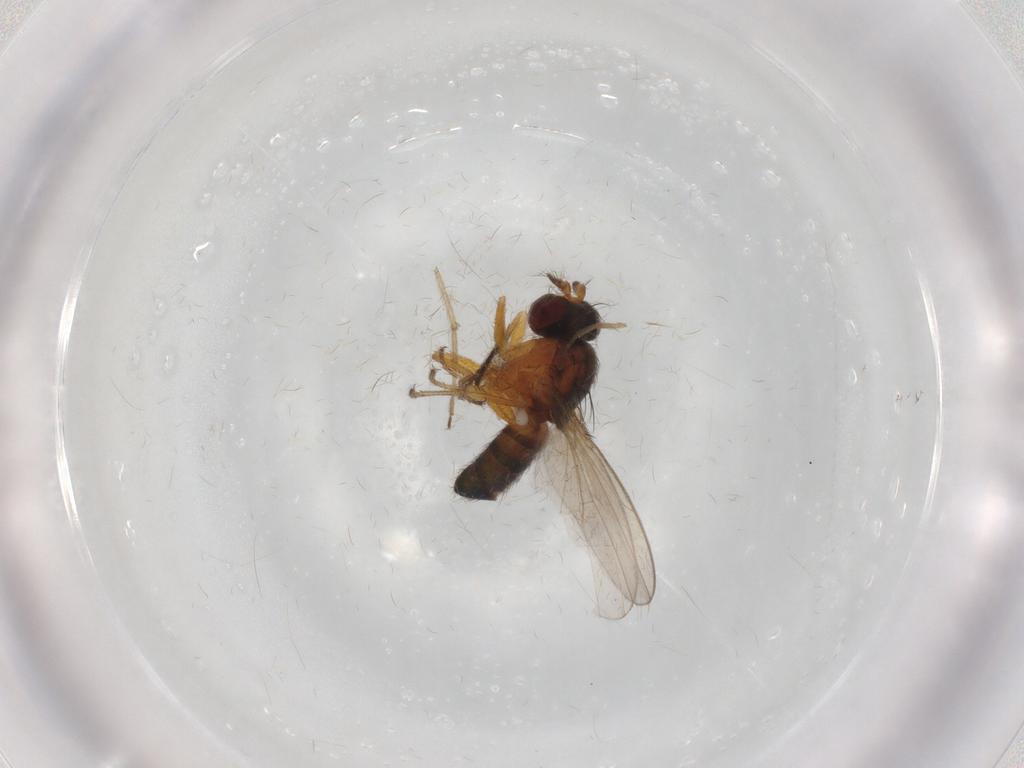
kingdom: Animalia
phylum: Arthropoda
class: Insecta
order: Diptera
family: Chironomidae
